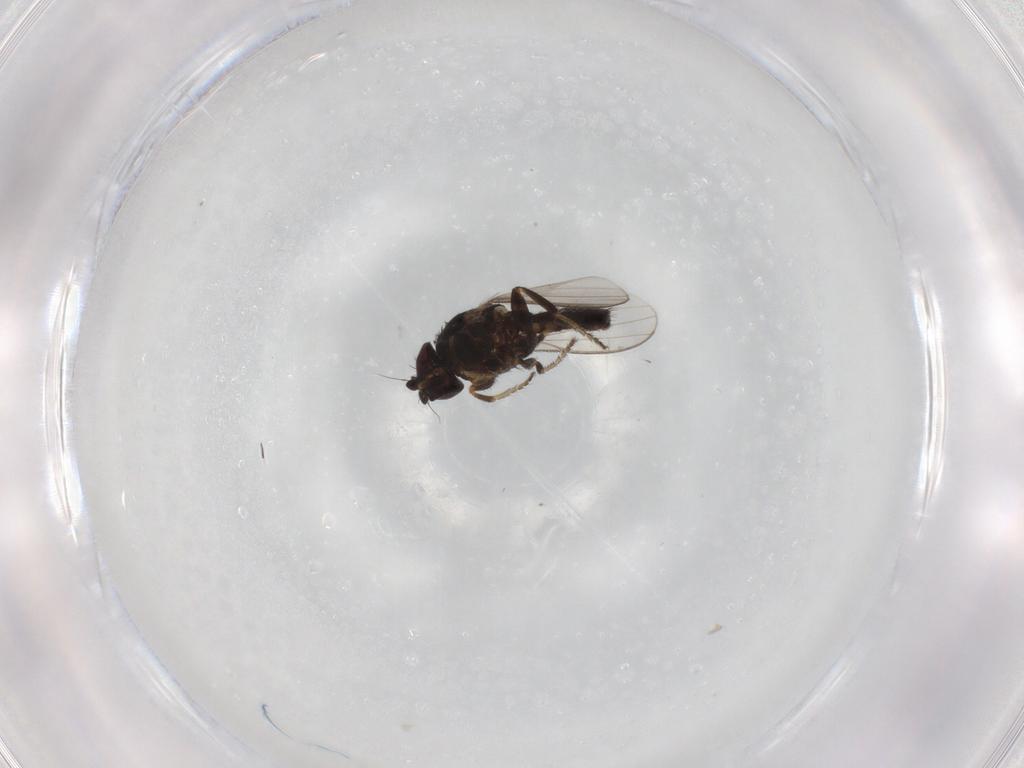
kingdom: Animalia
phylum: Arthropoda
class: Insecta
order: Diptera
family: Milichiidae
